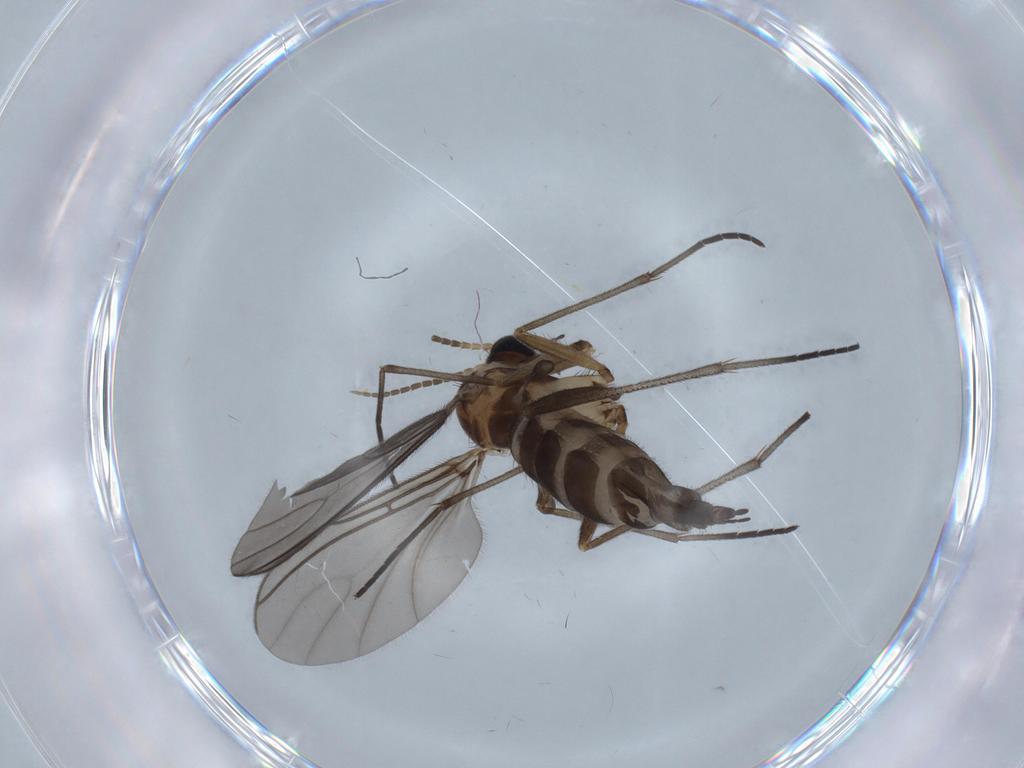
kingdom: Animalia
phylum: Arthropoda
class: Insecta
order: Diptera
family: Sciaridae
